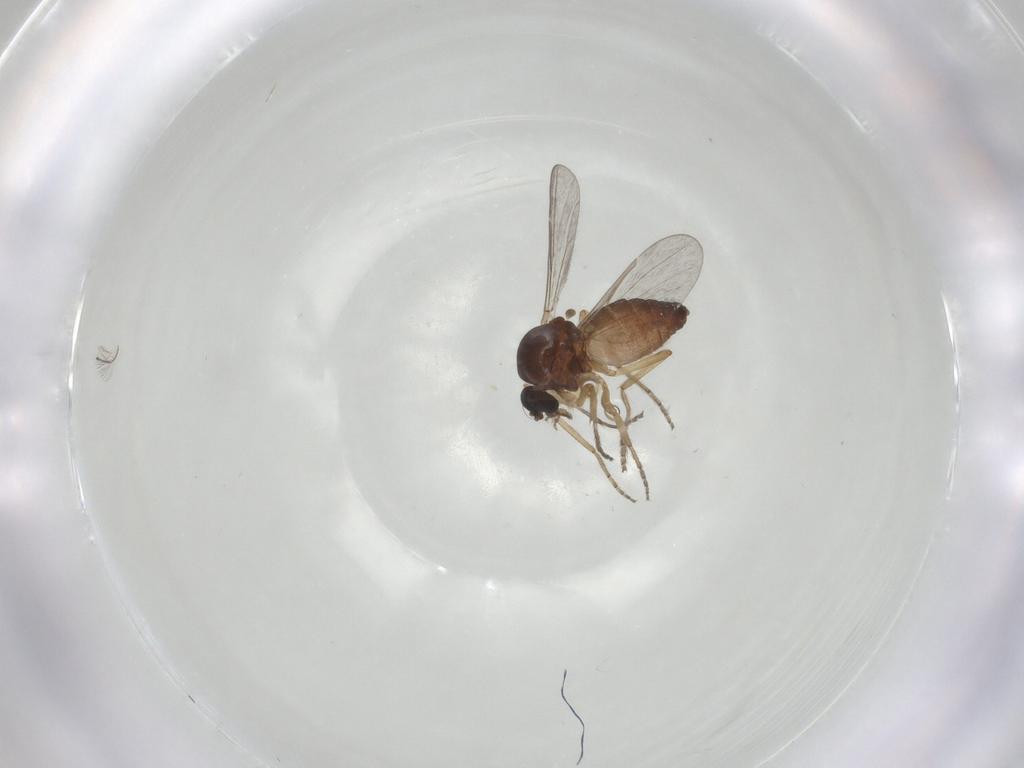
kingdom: Animalia
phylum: Arthropoda
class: Insecta
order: Diptera
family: Ceratopogonidae
